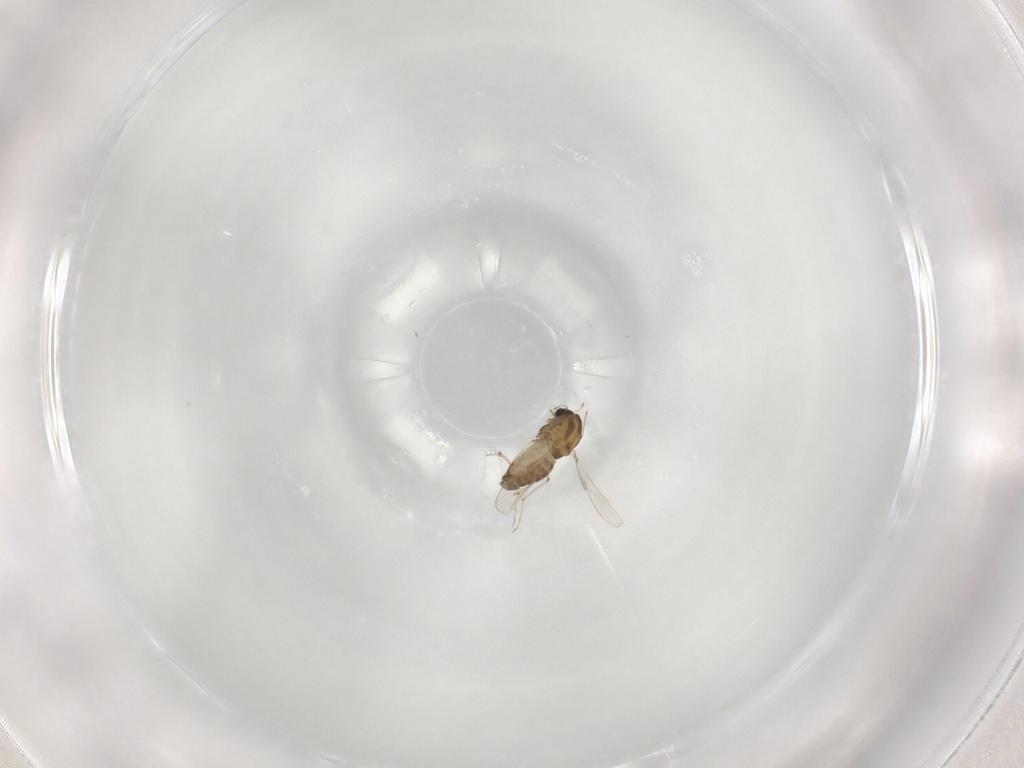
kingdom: Animalia
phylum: Arthropoda
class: Insecta
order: Diptera
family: Chironomidae
